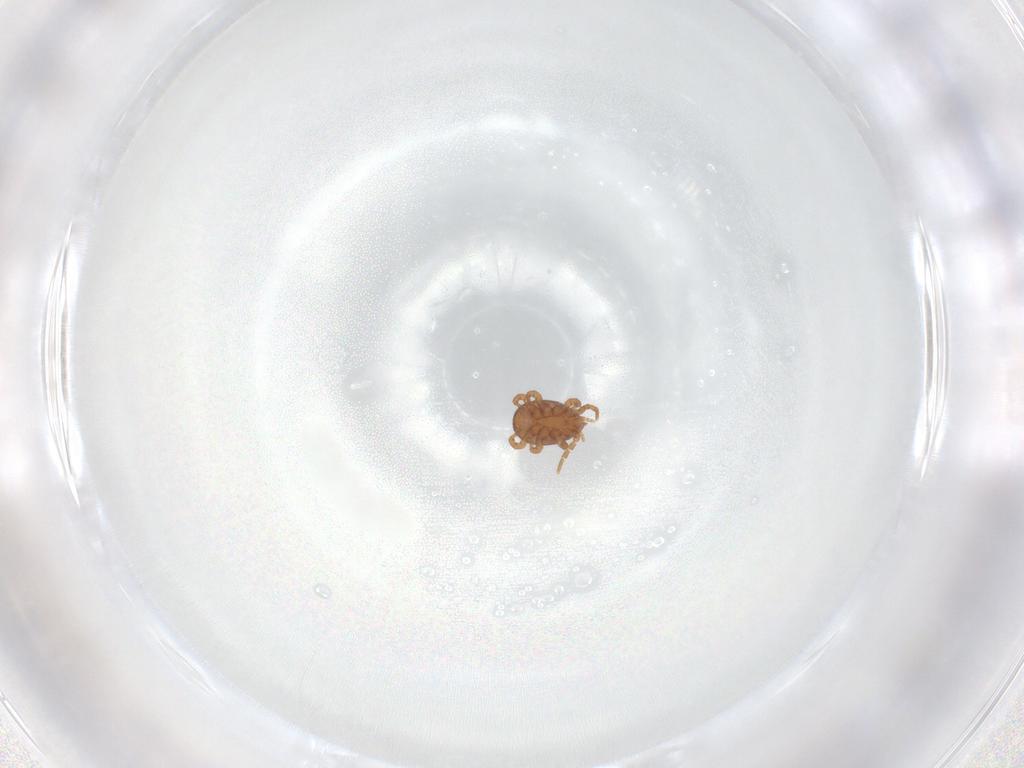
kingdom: Animalia
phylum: Arthropoda
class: Arachnida
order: Mesostigmata
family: Eviphididae
